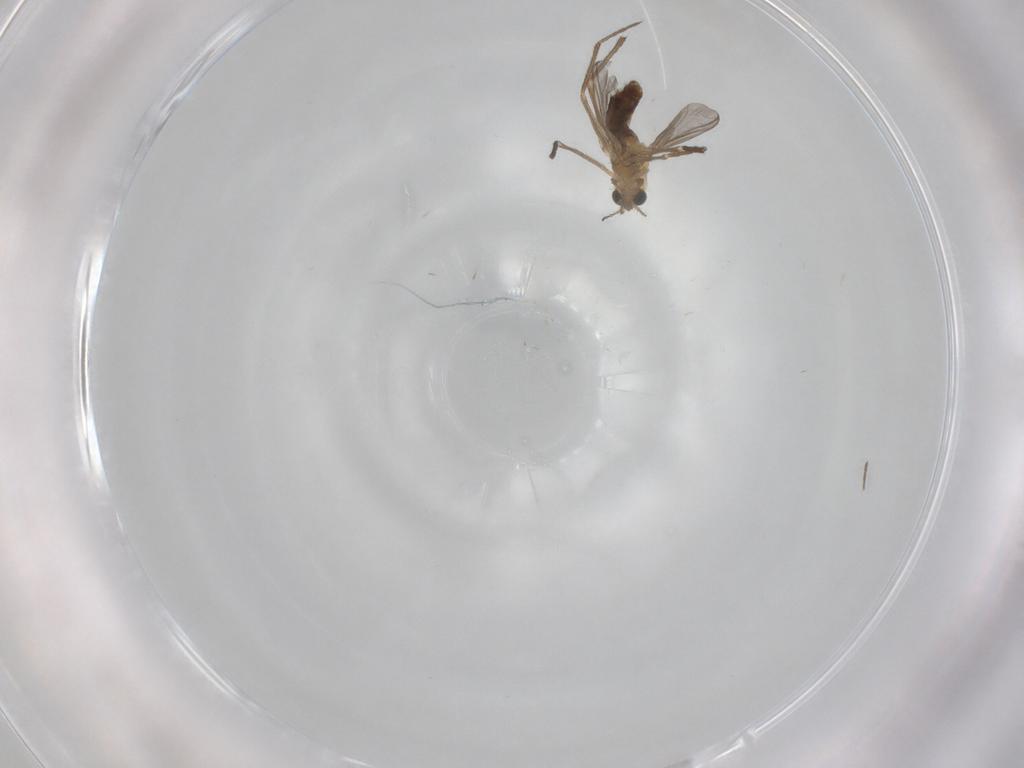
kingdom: Animalia
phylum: Arthropoda
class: Insecta
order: Diptera
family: Chironomidae
